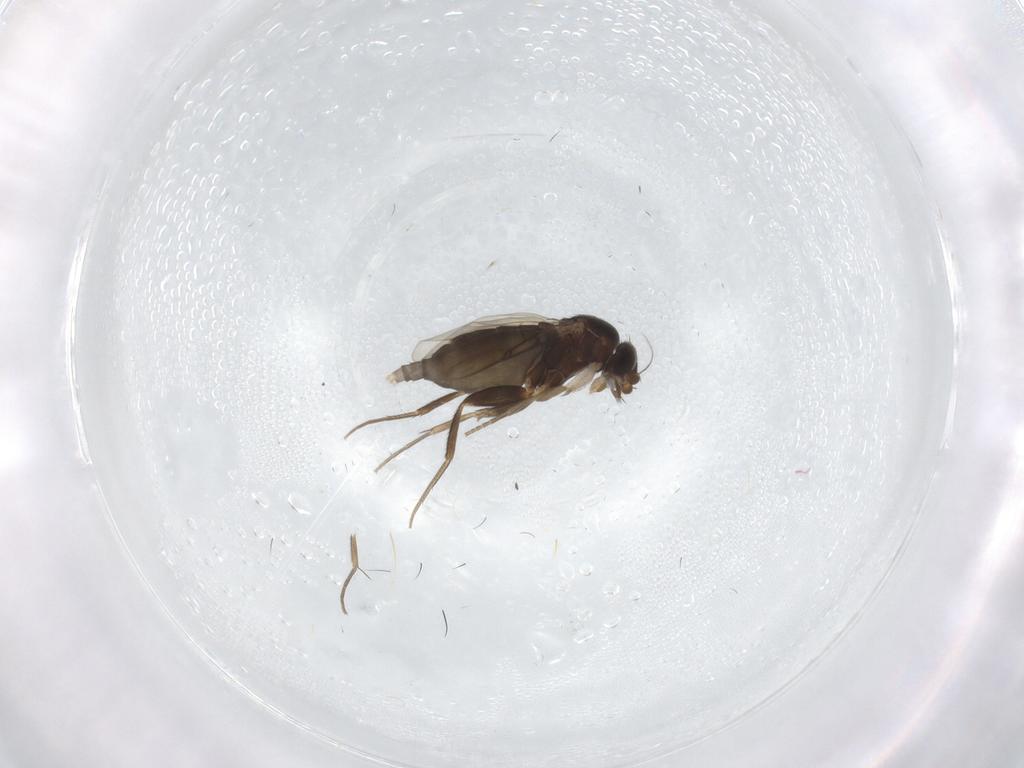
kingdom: Animalia
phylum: Arthropoda
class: Insecta
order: Diptera
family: Phoridae
